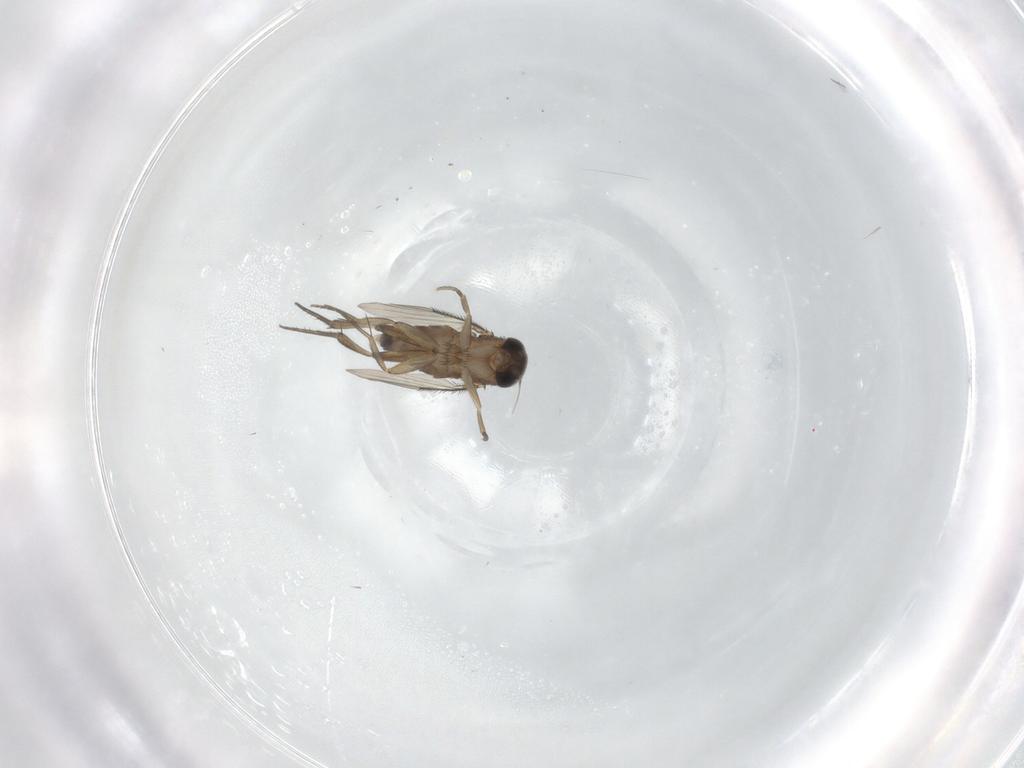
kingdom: Animalia
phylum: Arthropoda
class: Insecta
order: Diptera
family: Phoridae
